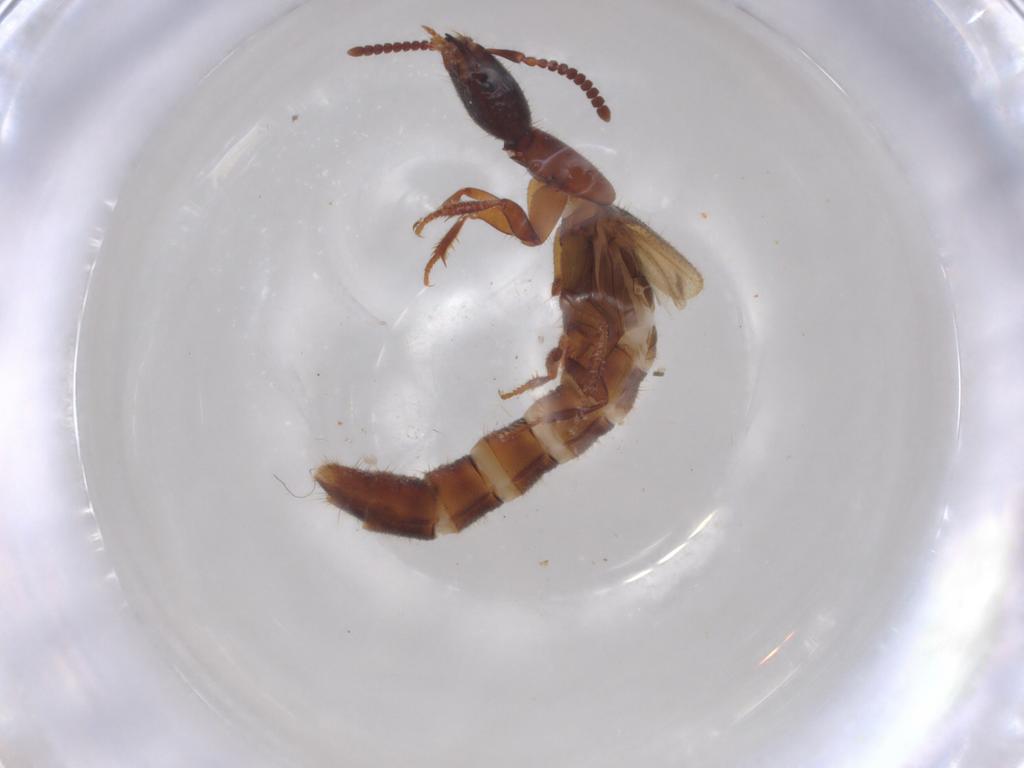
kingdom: Animalia
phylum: Arthropoda
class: Insecta
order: Coleoptera
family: Staphylinidae
